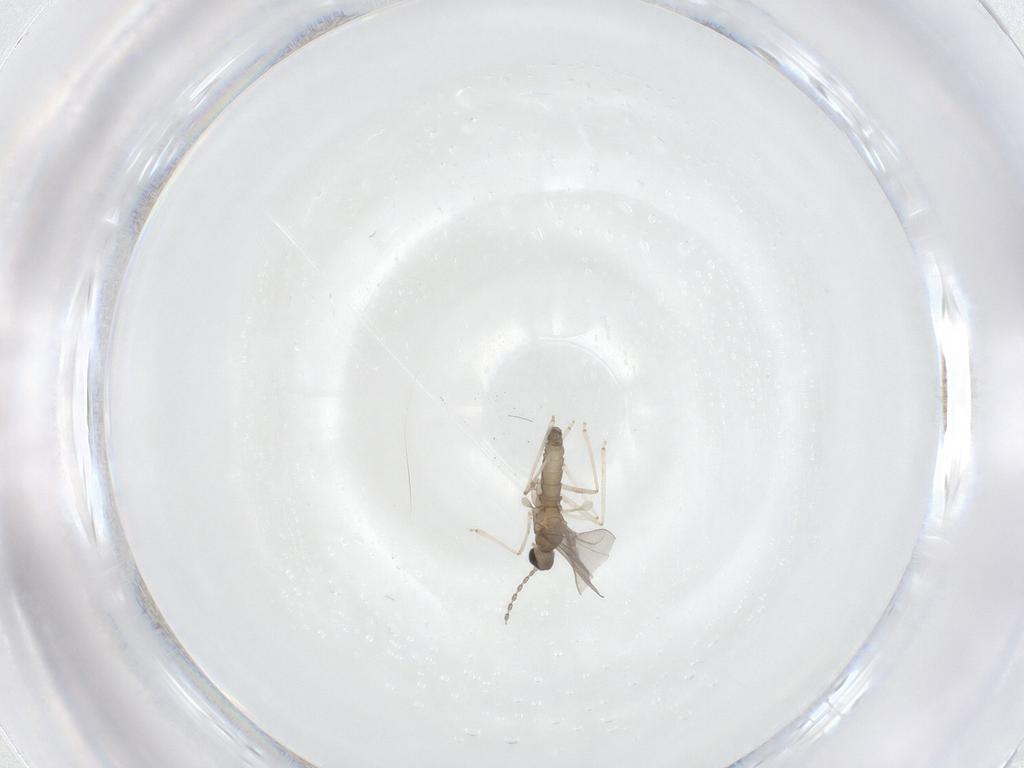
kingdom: Animalia
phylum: Arthropoda
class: Insecta
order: Diptera
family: Cecidomyiidae
